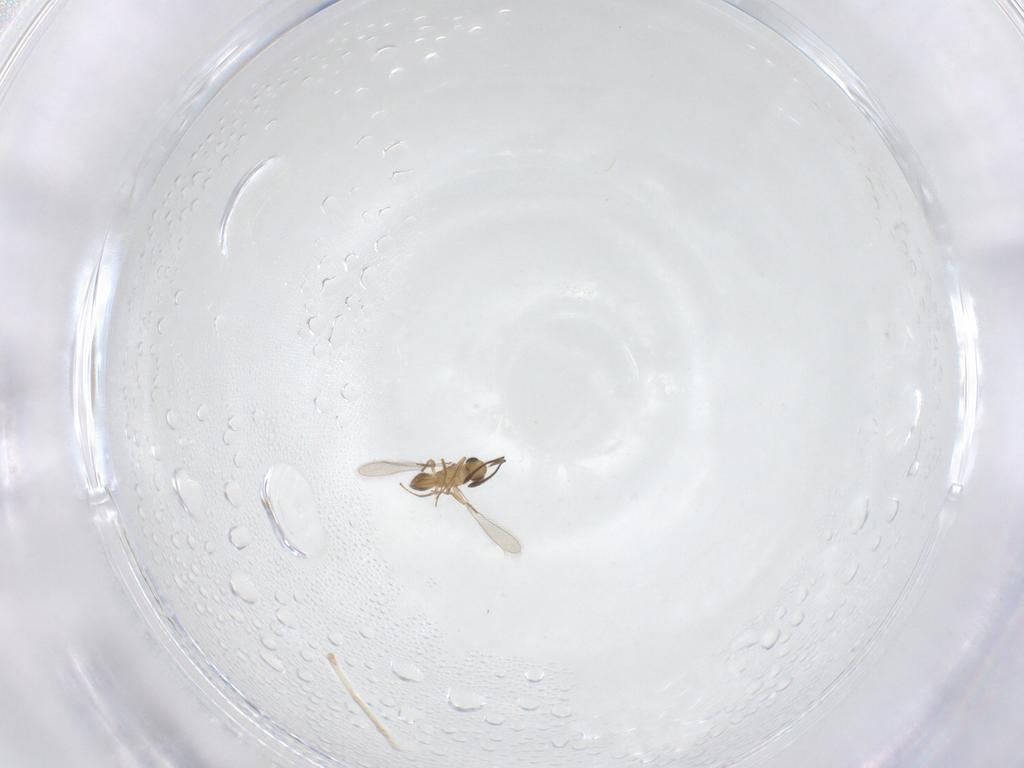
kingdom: Animalia
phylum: Arthropoda
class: Insecta
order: Hymenoptera
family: Mymaridae
